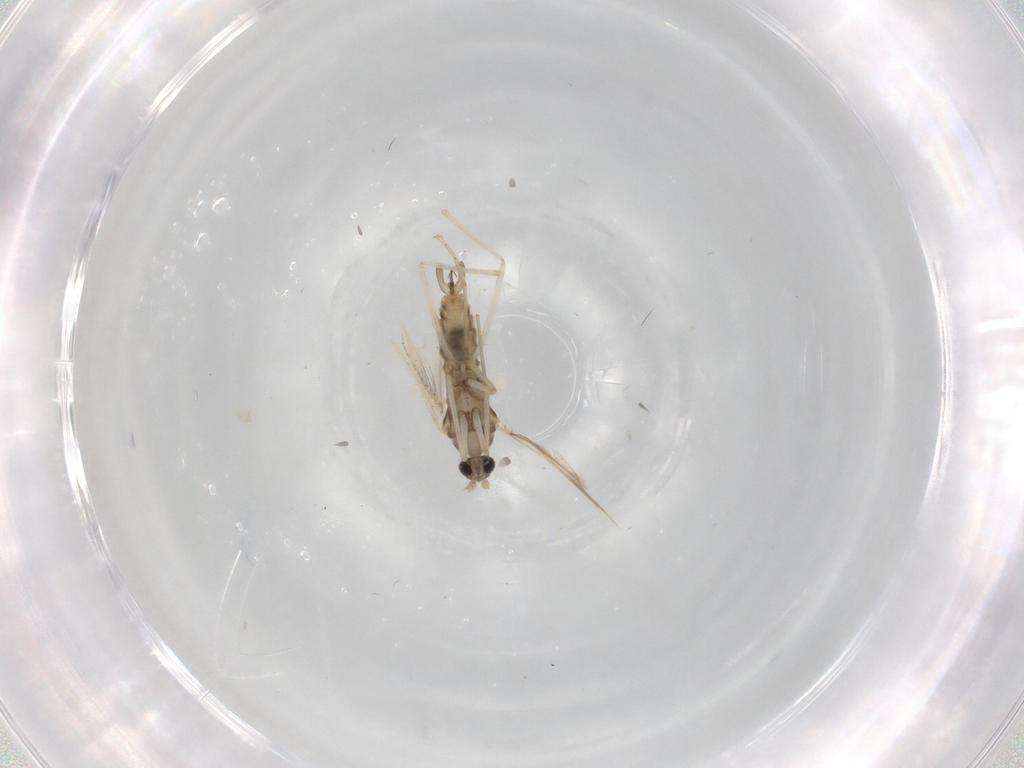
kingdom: Animalia
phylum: Arthropoda
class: Insecta
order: Diptera
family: Cecidomyiidae
